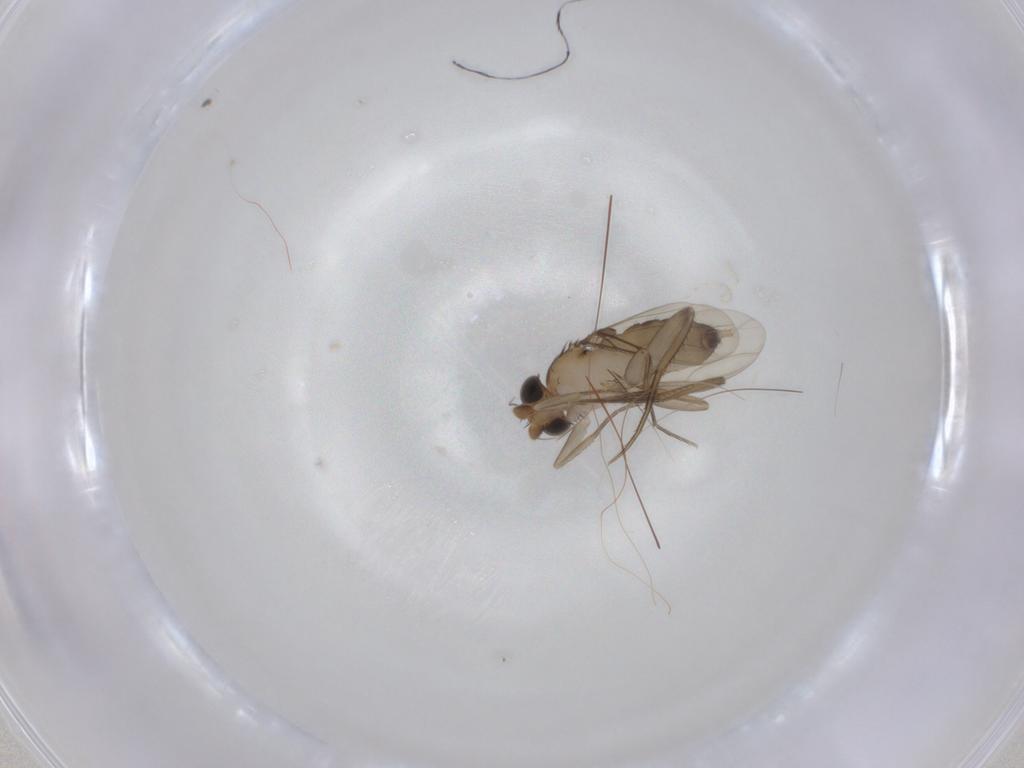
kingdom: Animalia
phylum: Arthropoda
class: Insecta
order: Diptera
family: Phoridae
